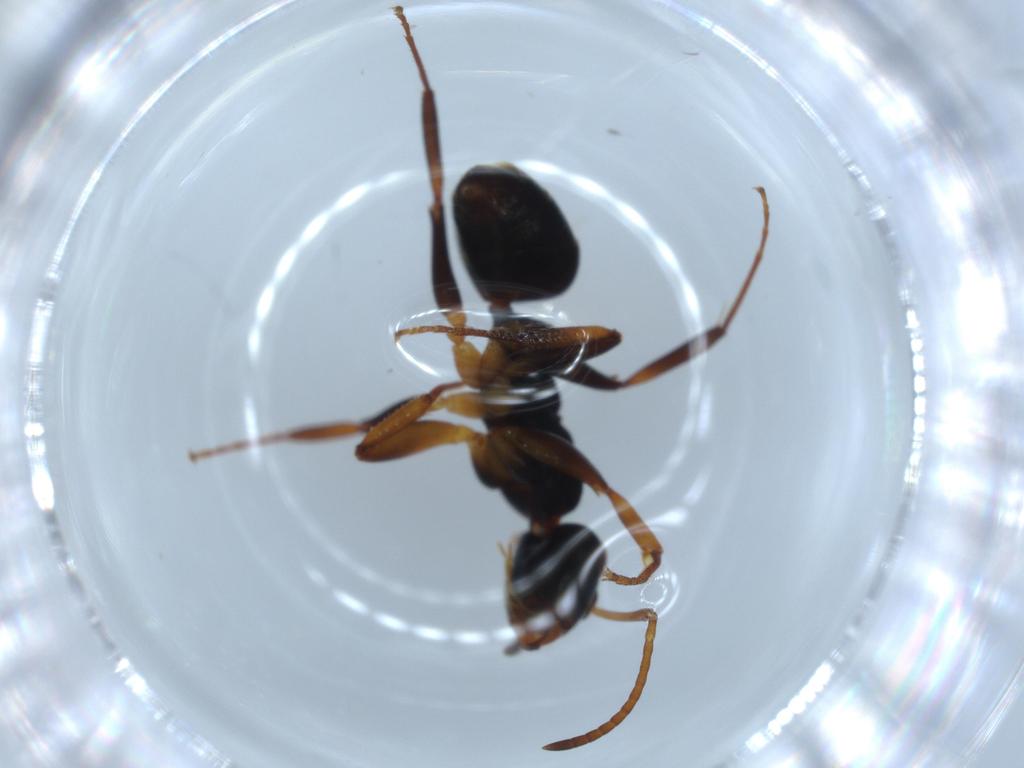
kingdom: Animalia
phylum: Arthropoda
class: Insecta
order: Hymenoptera
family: Formicidae
